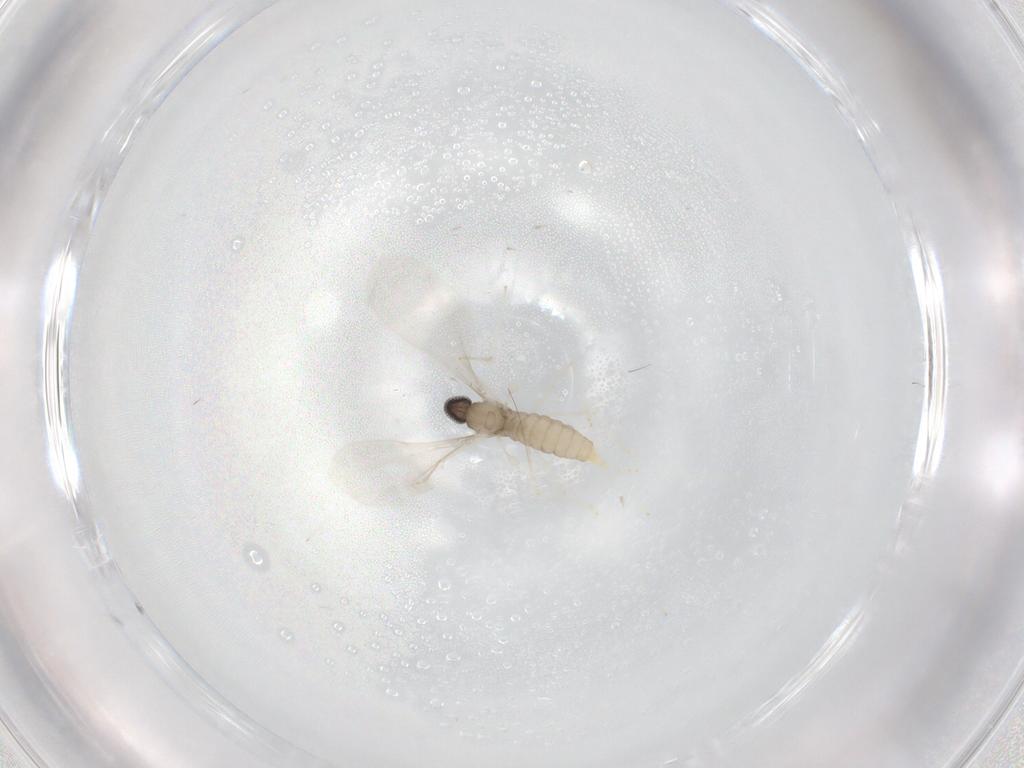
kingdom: Animalia
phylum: Arthropoda
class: Insecta
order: Diptera
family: Cecidomyiidae
